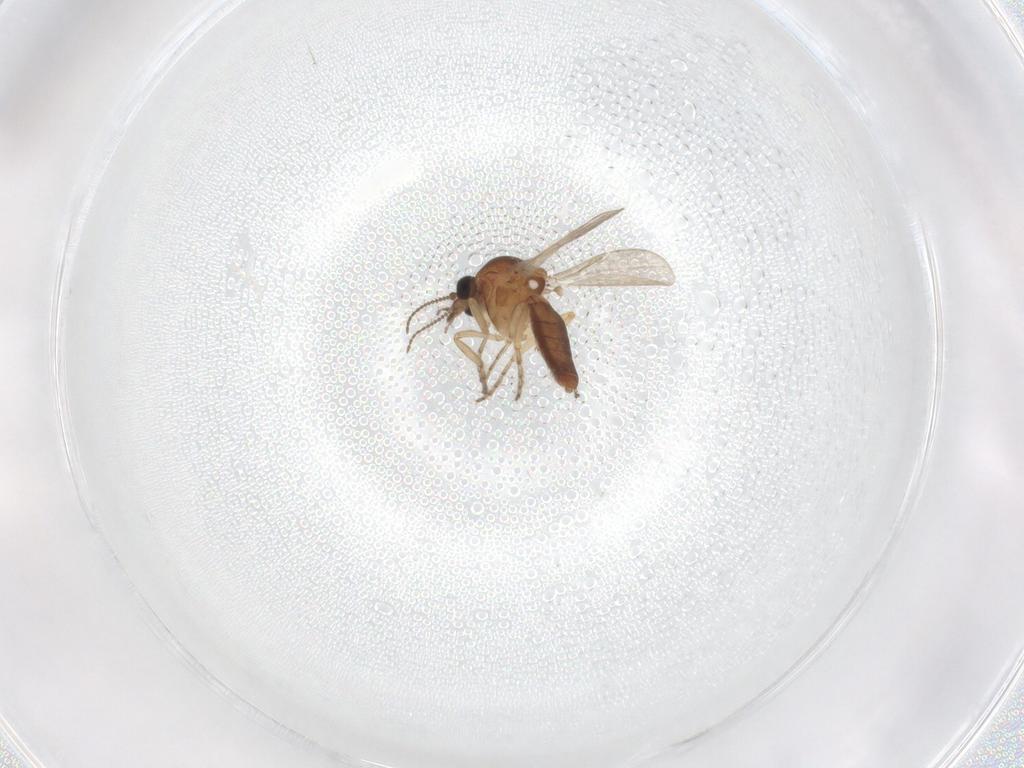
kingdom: Animalia
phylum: Arthropoda
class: Insecta
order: Diptera
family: Ceratopogonidae
